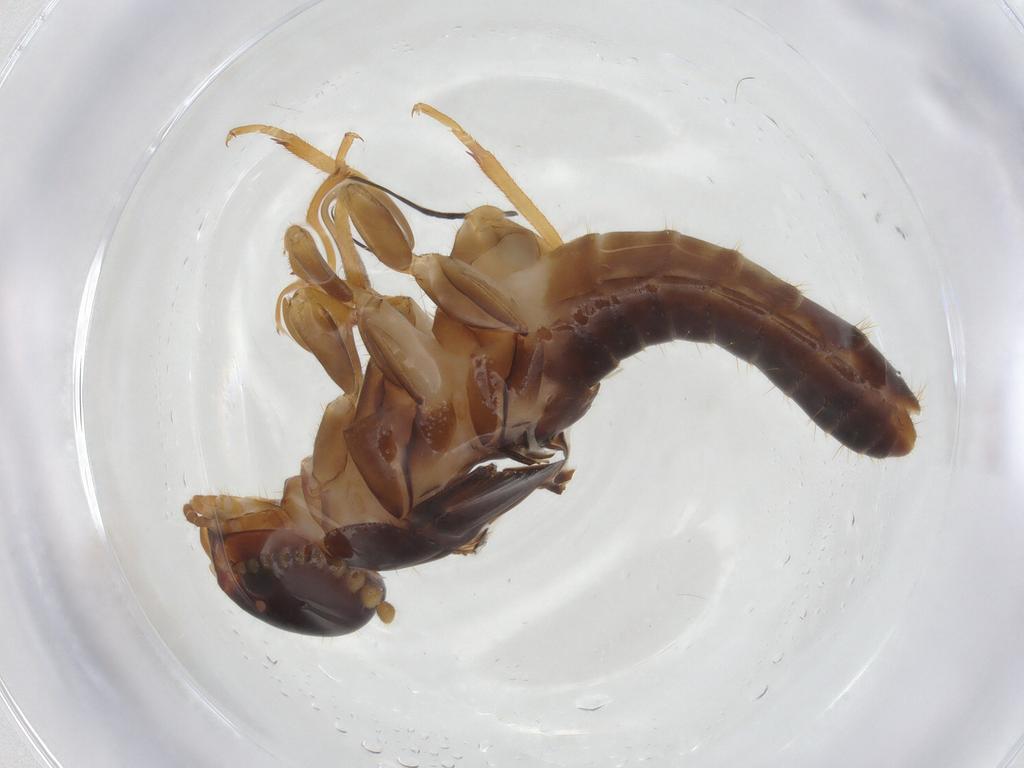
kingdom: Animalia
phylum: Arthropoda
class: Insecta
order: Blattodea
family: Kalotermitidae
